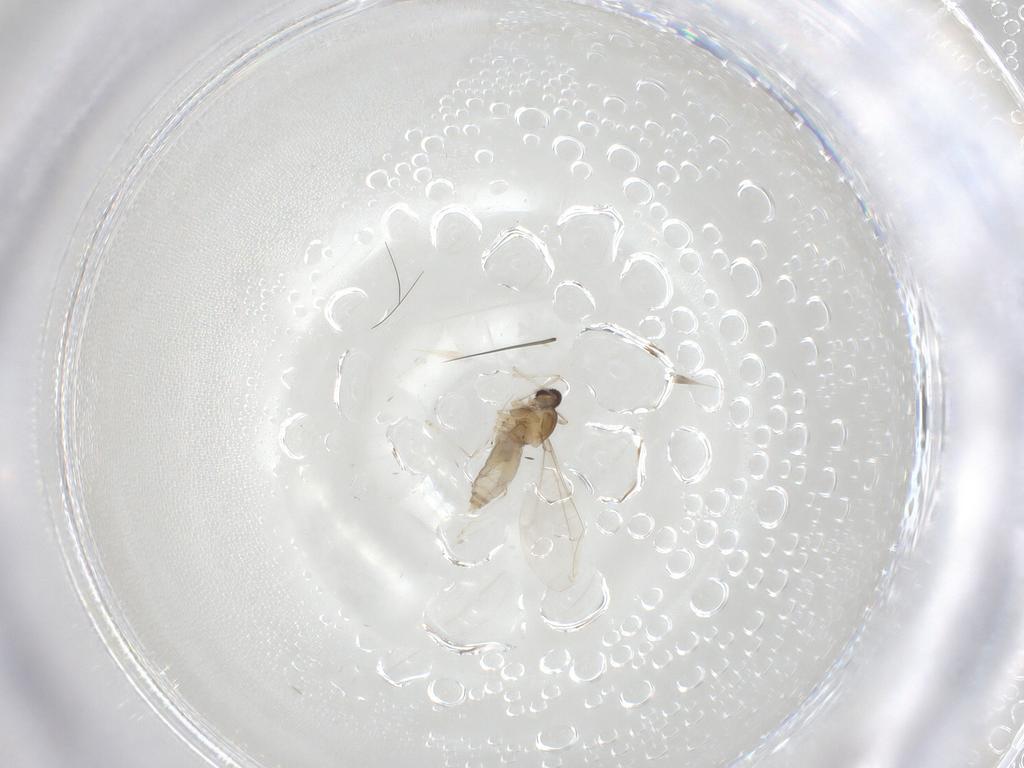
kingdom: Animalia
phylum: Arthropoda
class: Insecta
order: Diptera
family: Cecidomyiidae
